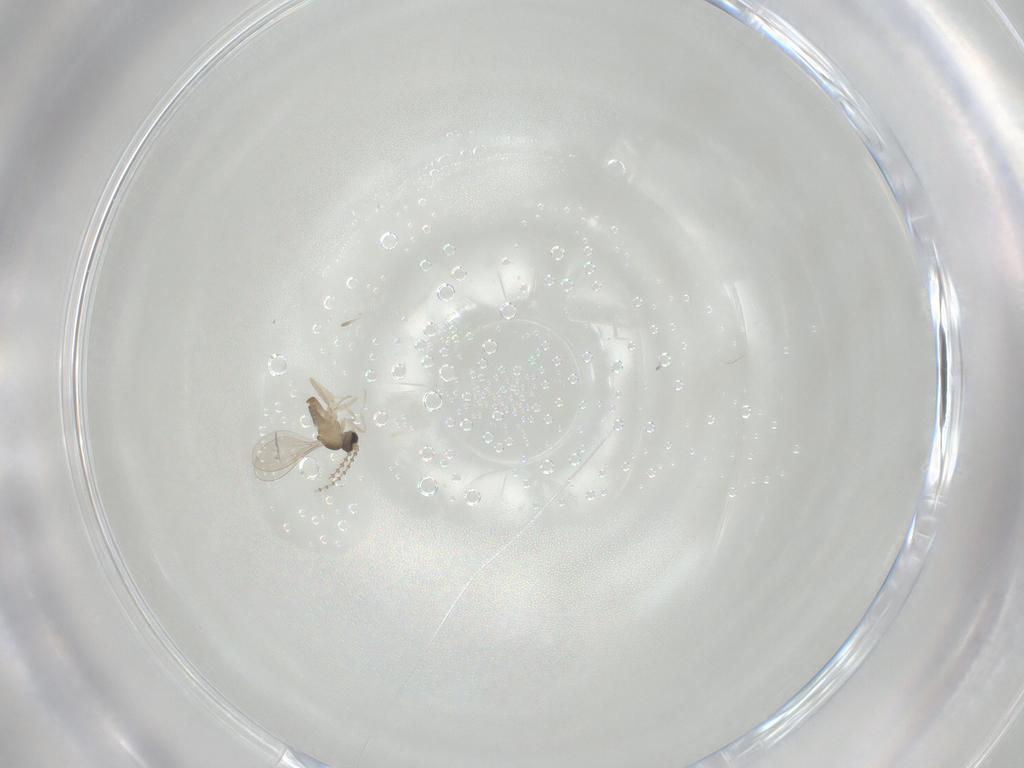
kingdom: Animalia
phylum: Arthropoda
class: Insecta
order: Diptera
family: Cecidomyiidae
